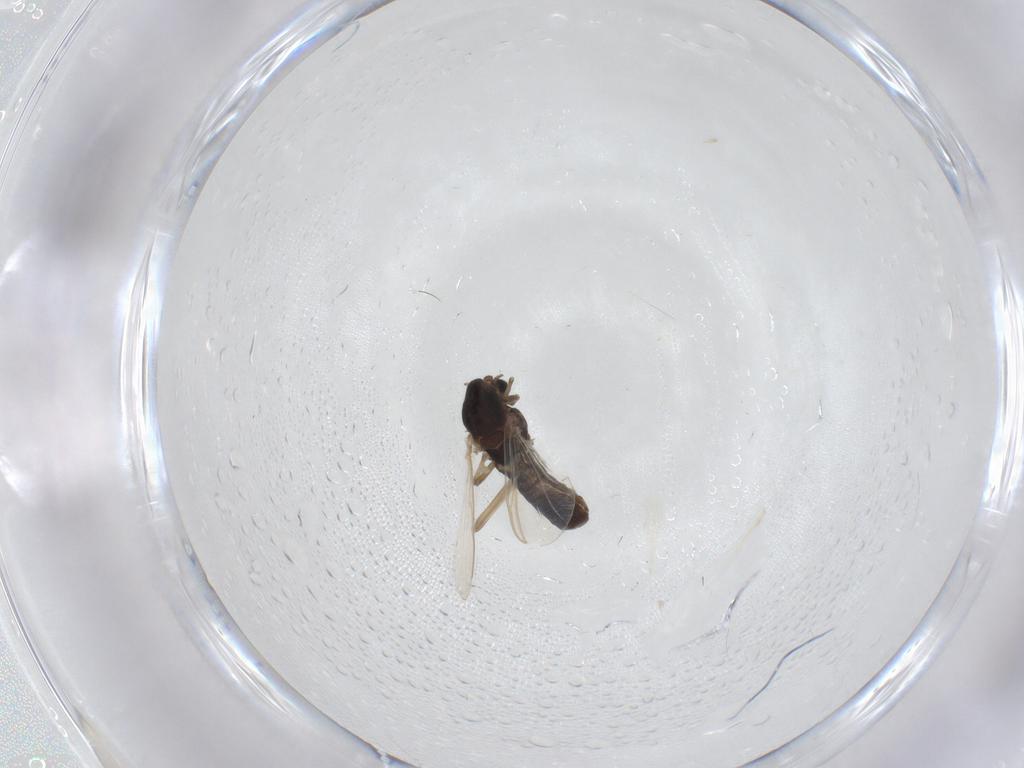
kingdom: Animalia
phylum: Arthropoda
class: Insecta
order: Diptera
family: Chironomidae
